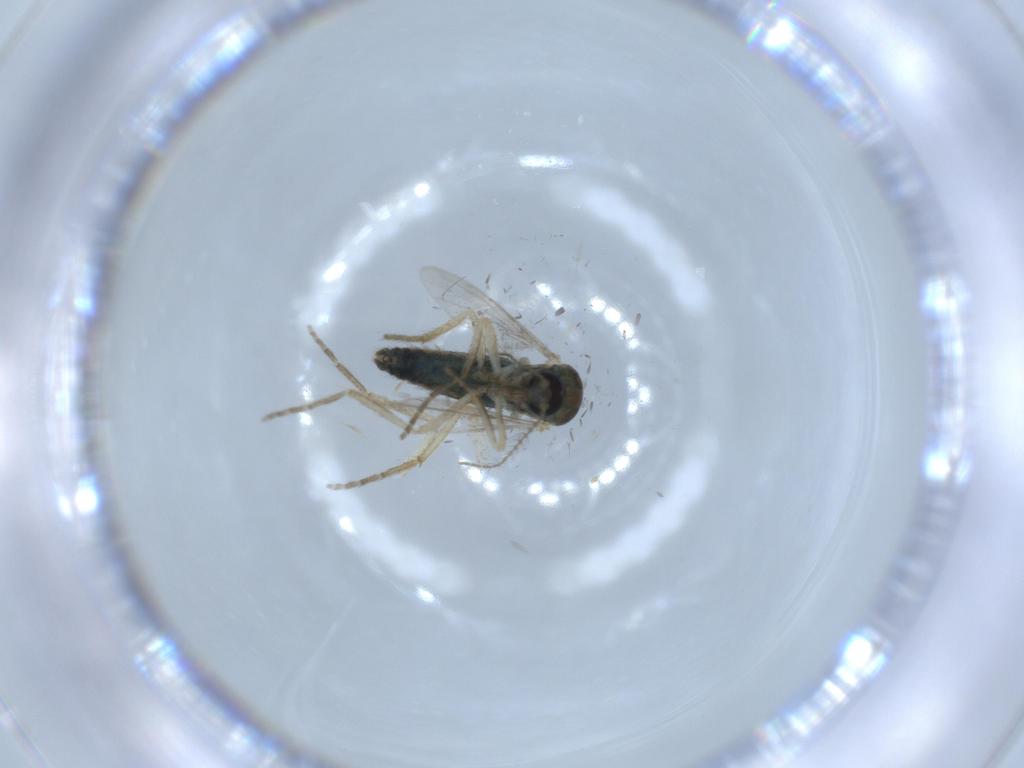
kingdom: Animalia
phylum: Arthropoda
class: Insecta
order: Diptera
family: Ceratopogonidae
